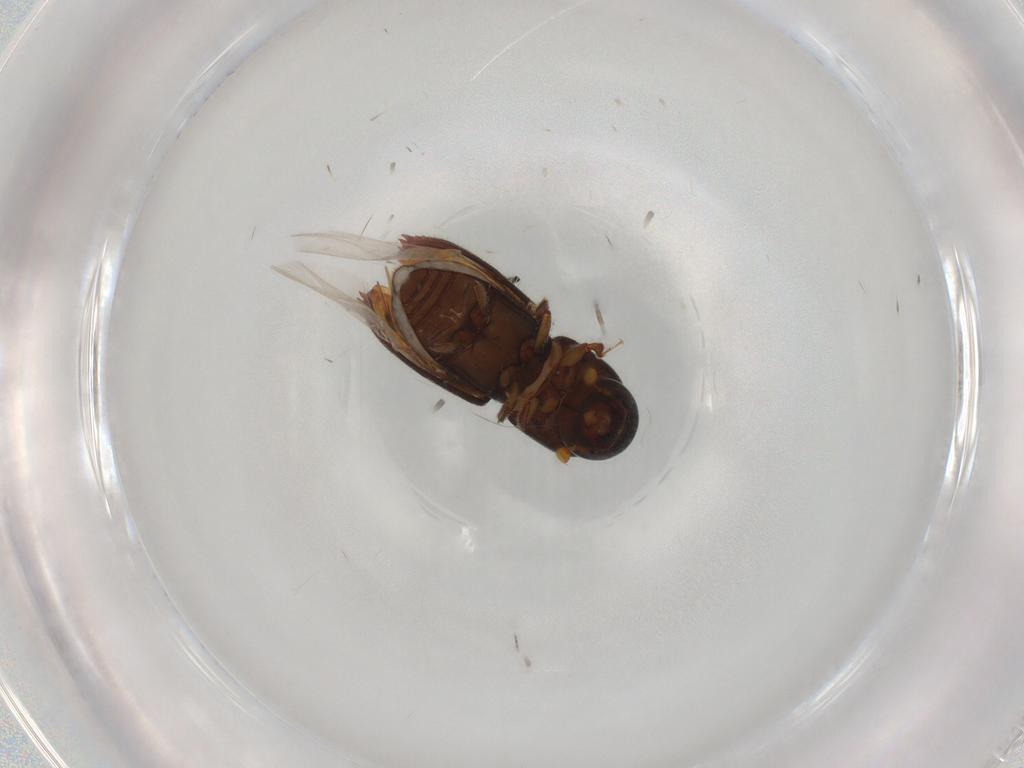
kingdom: Animalia
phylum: Arthropoda
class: Insecta
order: Coleoptera
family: Curculionidae
